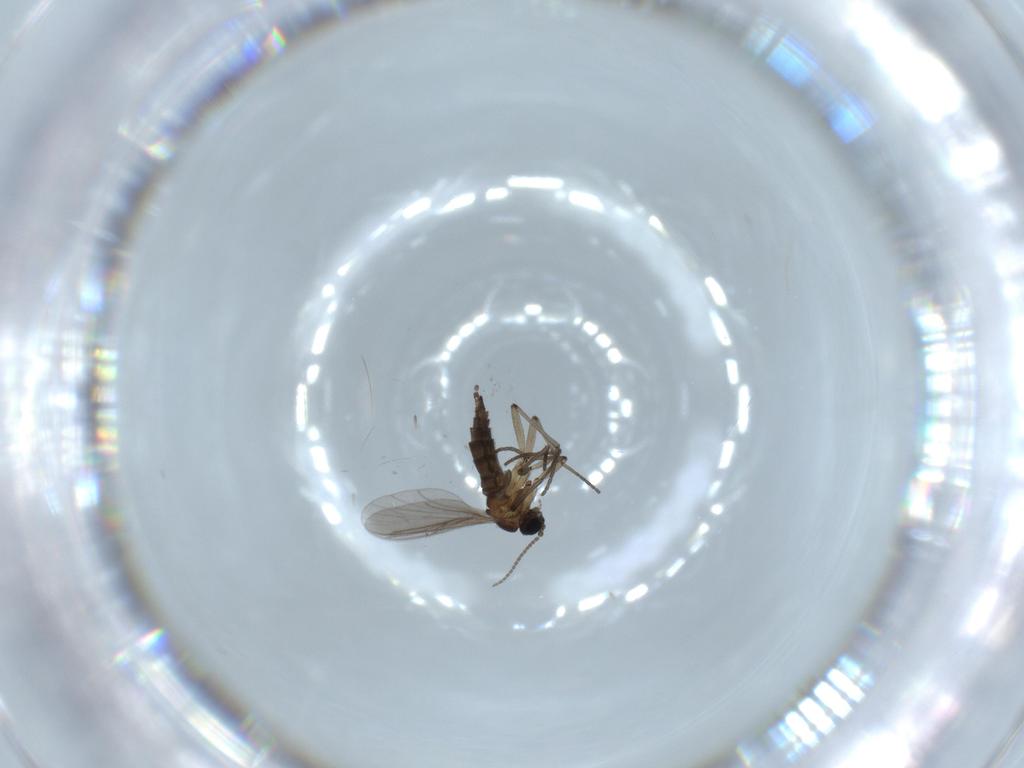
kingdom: Animalia
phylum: Arthropoda
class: Insecta
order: Diptera
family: Sciaridae
